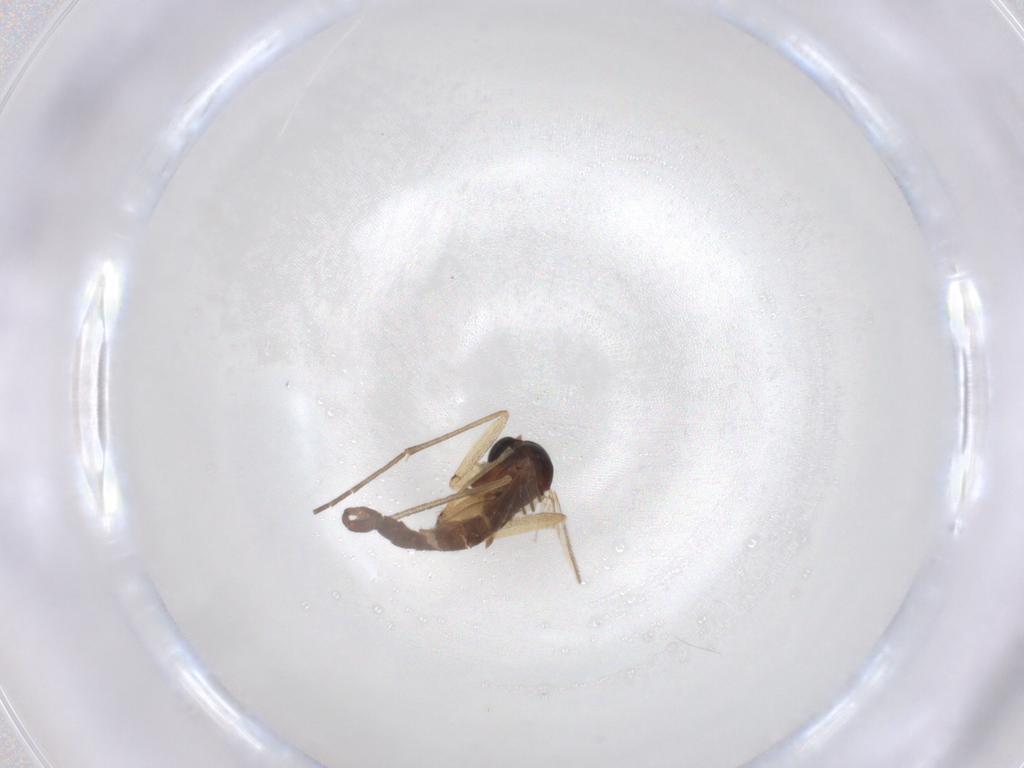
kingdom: Animalia
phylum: Arthropoda
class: Insecta
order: Diptera
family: Sciaridae
